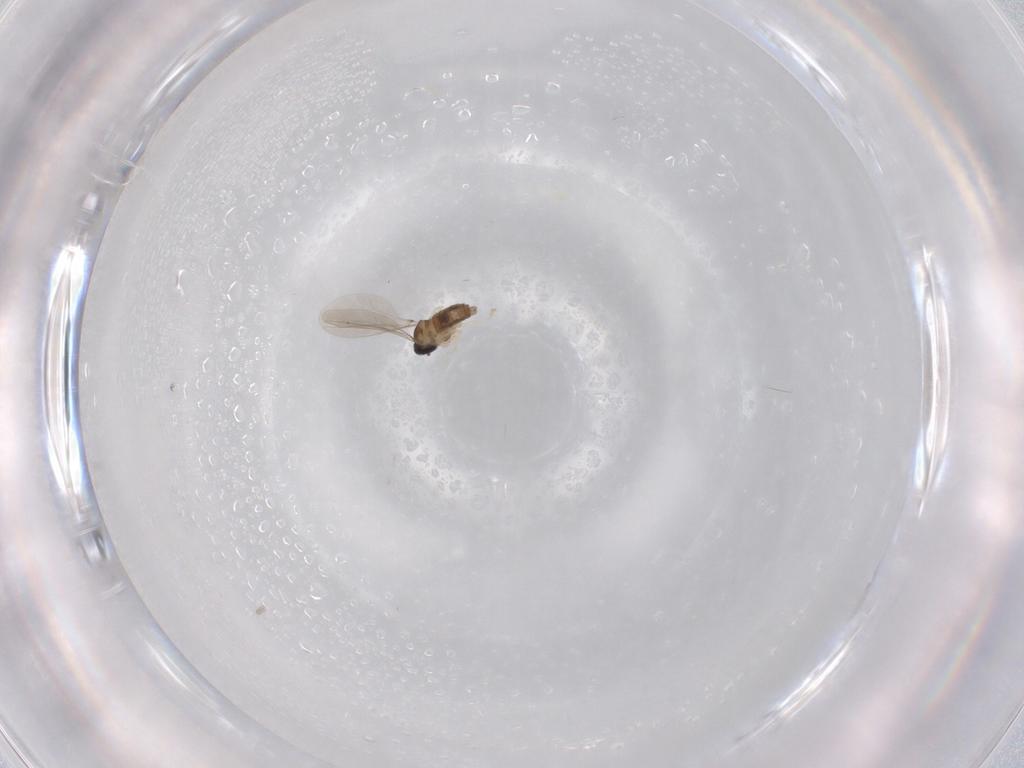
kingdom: Animalia
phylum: Arthropoda
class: Insecta
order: Diptera
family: Cecidomyiidae
